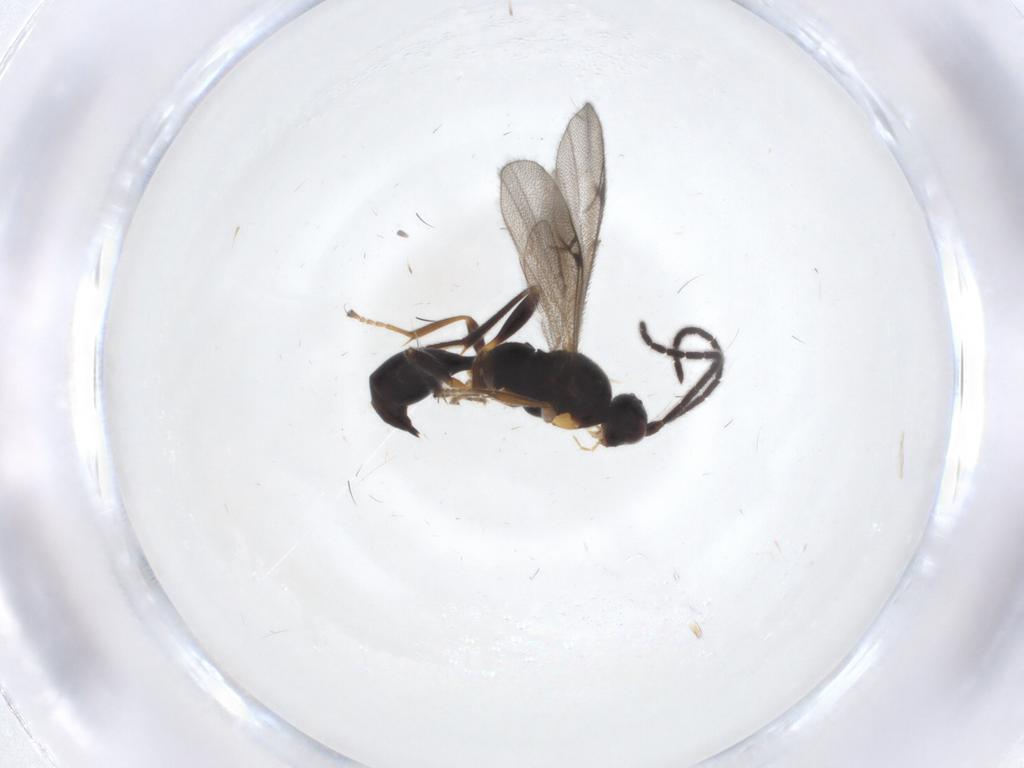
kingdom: Animalia
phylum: Arthropoda
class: Insecta
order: Hymenoptera
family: Proctotrupidae
